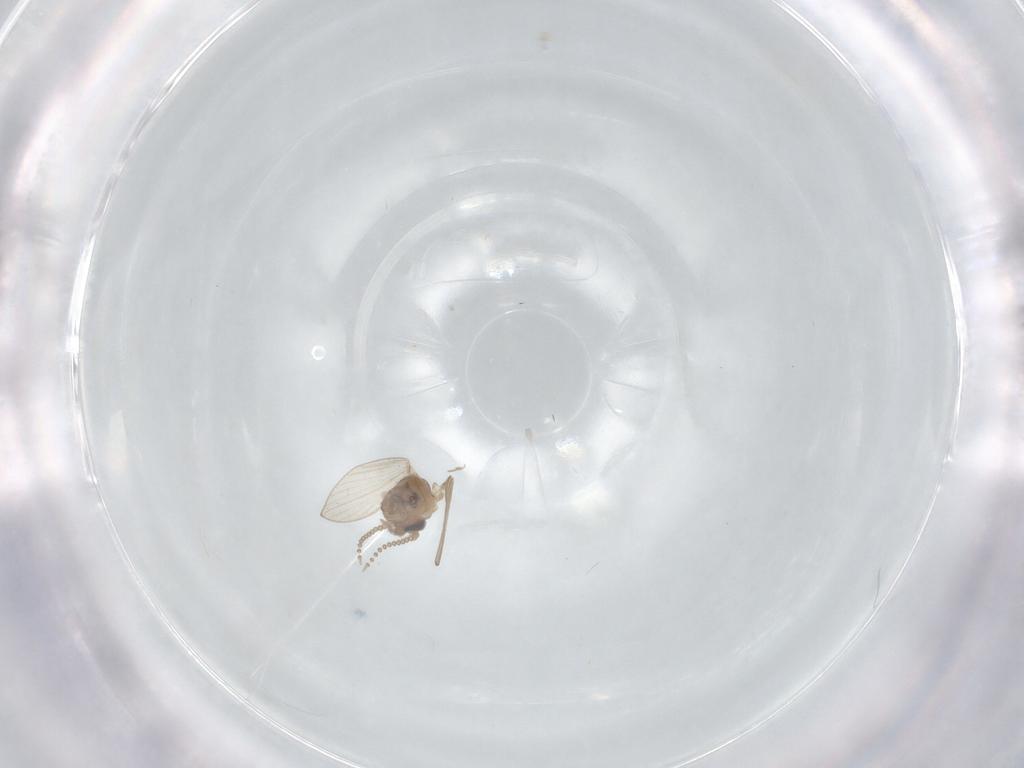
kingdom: Animalia
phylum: Arthropoda
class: Insecta
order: Diptera
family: Psychodidae
